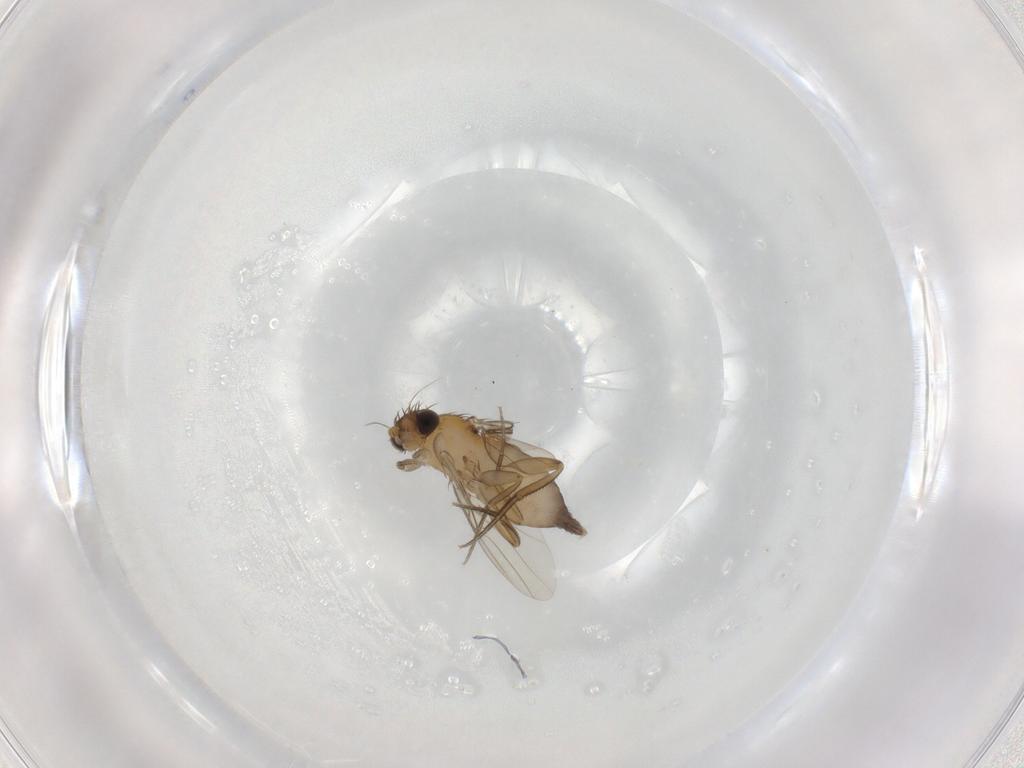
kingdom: Animalia
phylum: Arthropoda
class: Insecta
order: Diptera
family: Phoridae
